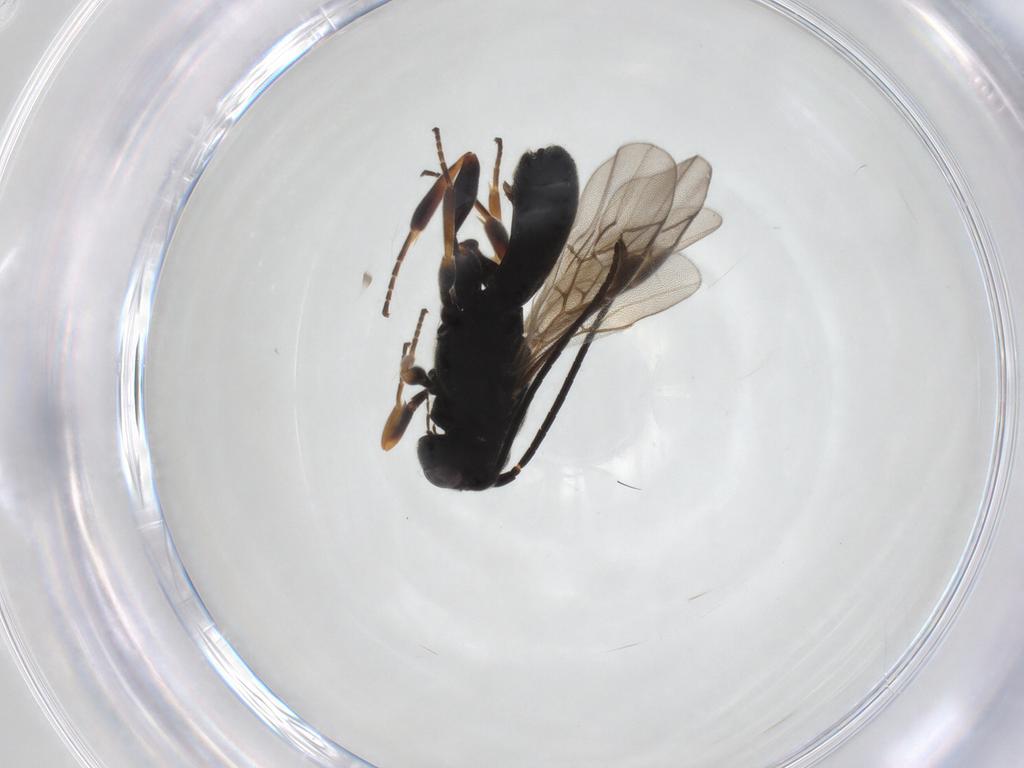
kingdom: Animalia
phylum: Arthropoda
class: Insecta
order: Hymenoptera
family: Braconidae
